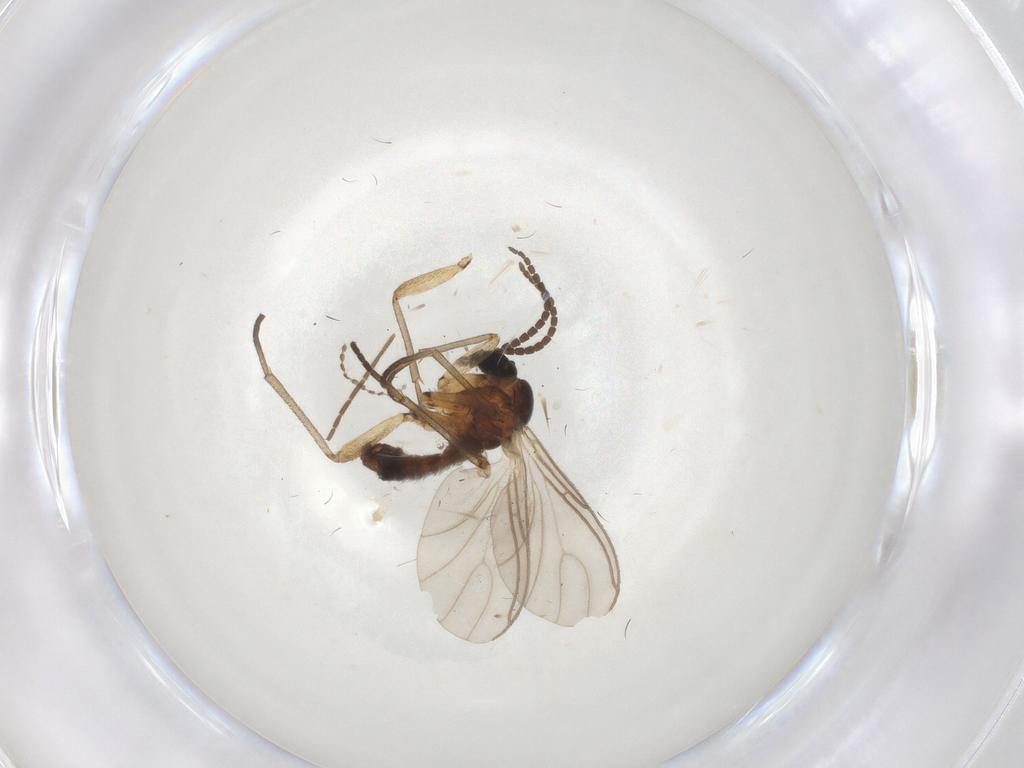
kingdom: Animalia
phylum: Arthropoda
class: Insecta
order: Diptera
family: Sciaridae
